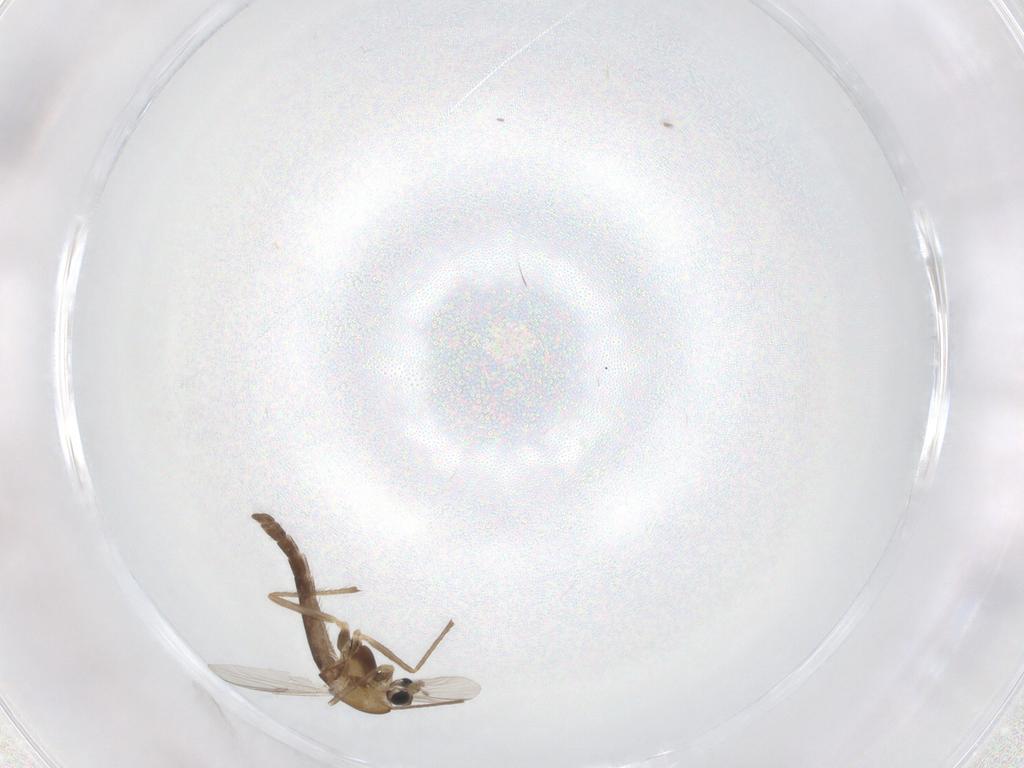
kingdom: Animalia
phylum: Arthropoda
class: Insecta
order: Diptera
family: Chironomidae
